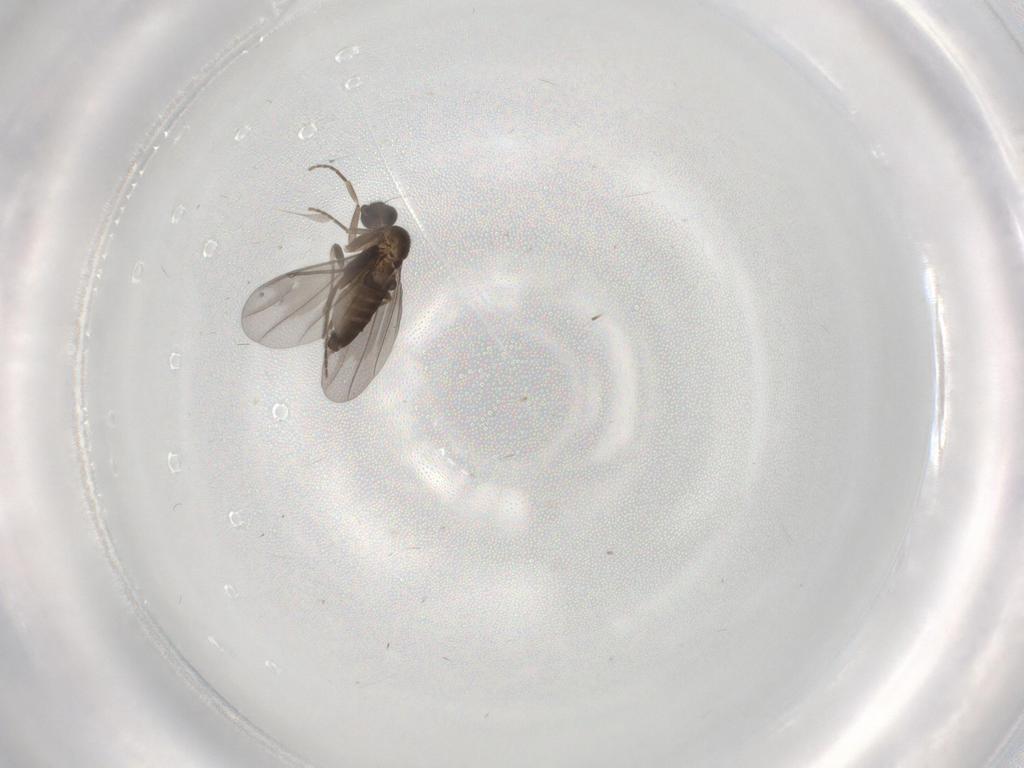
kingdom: Animalia
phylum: Arthropoda
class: Insecta
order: Diptera
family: Phoridae
